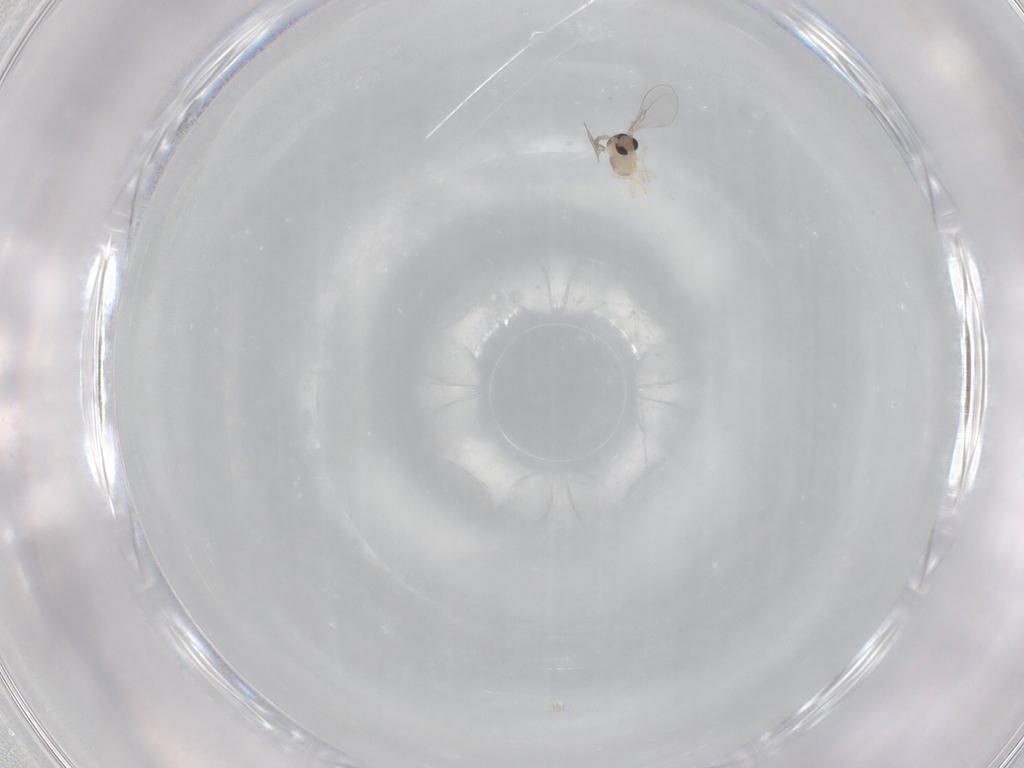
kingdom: Animalia
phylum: Arthropoda
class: Insecta
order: Diptera
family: Cecidomyiidae
